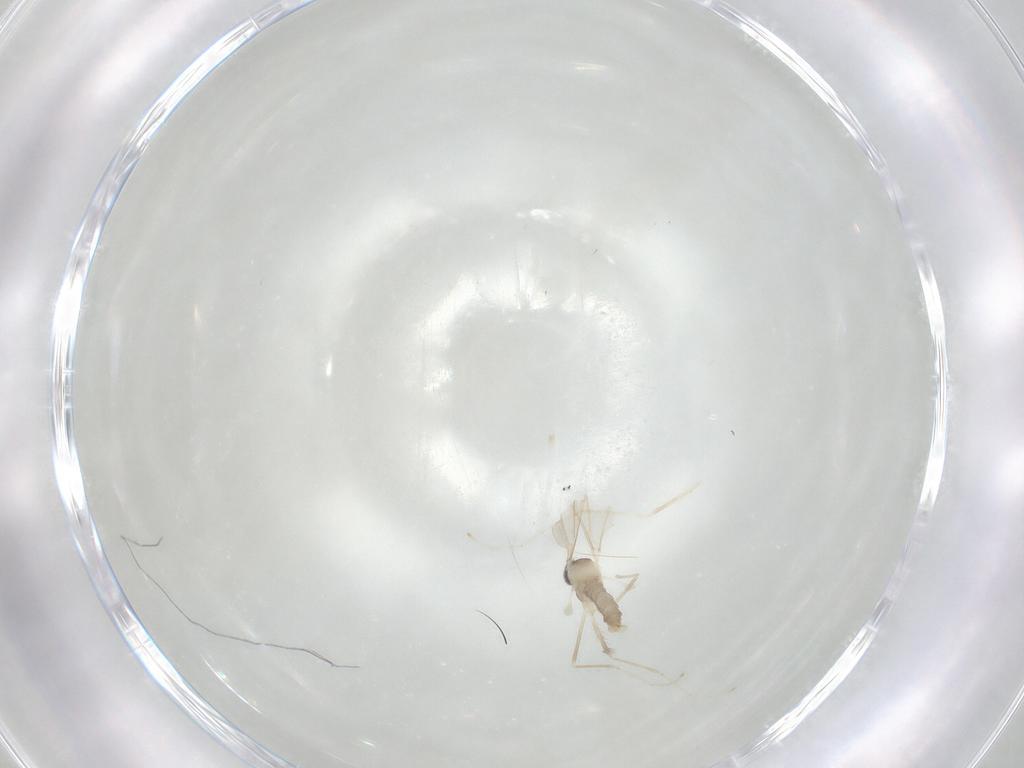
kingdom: Animalia
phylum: Arthropoda
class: Insecta
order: Diptera
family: Cecidomyiidae
